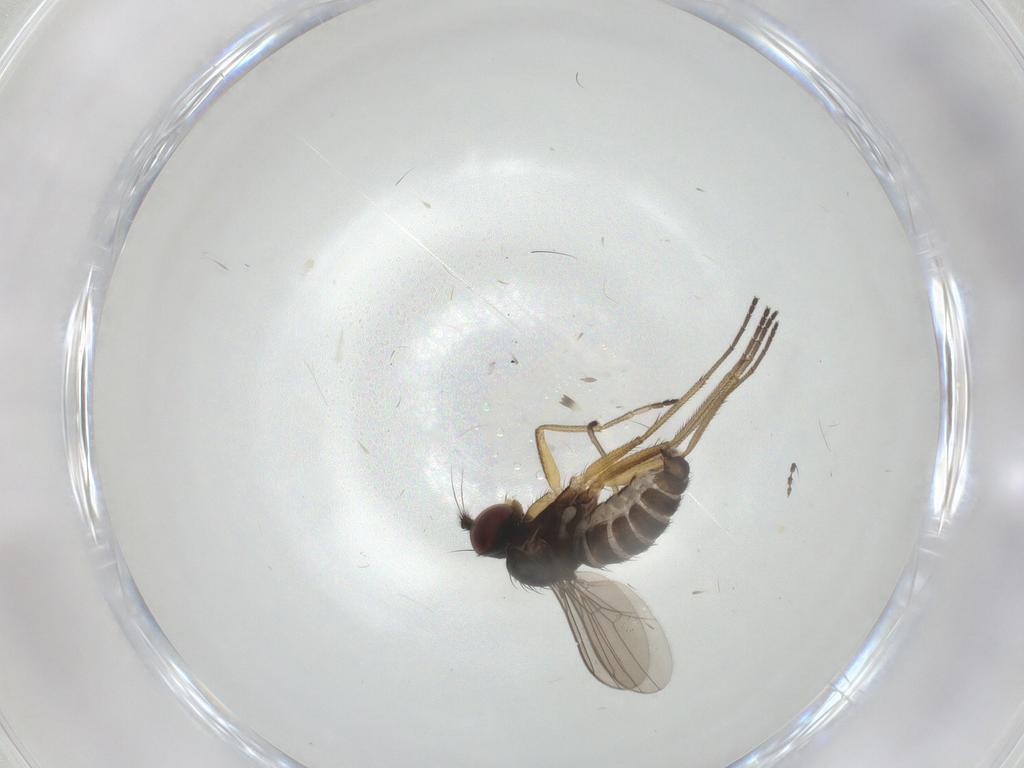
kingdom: Animalia
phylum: Arthropoda
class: Insecta
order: Diptera
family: Dolichopodidae
